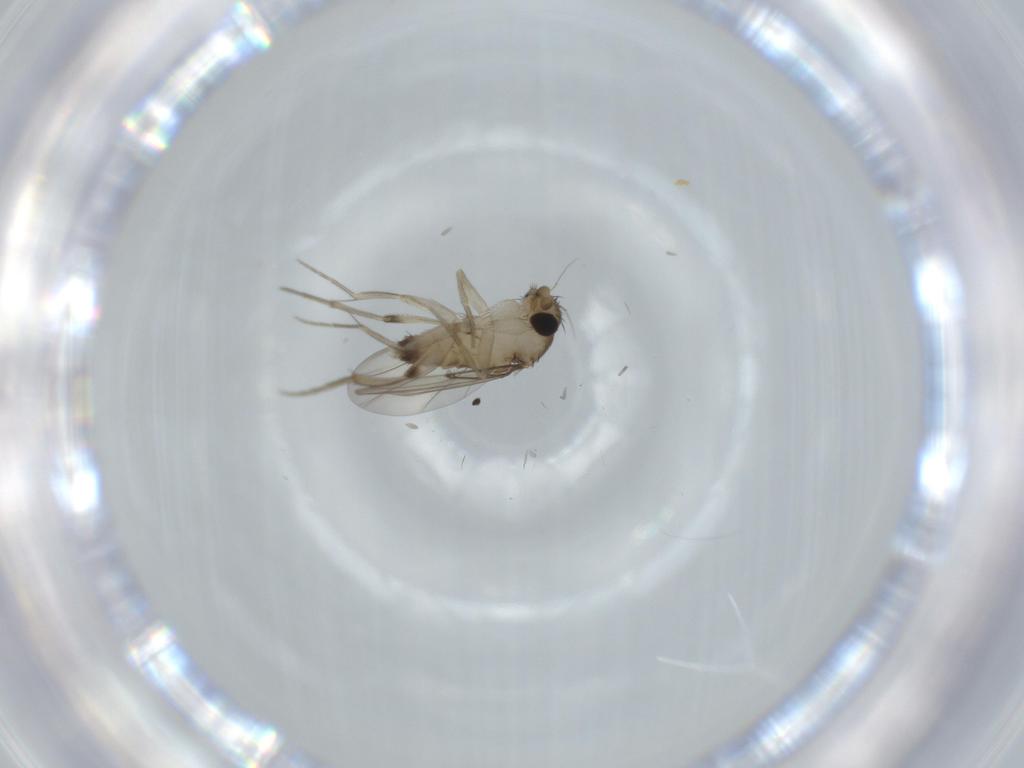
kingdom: Animalia
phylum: Arthropoda
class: Insecta
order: Diptera
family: Phoridae
